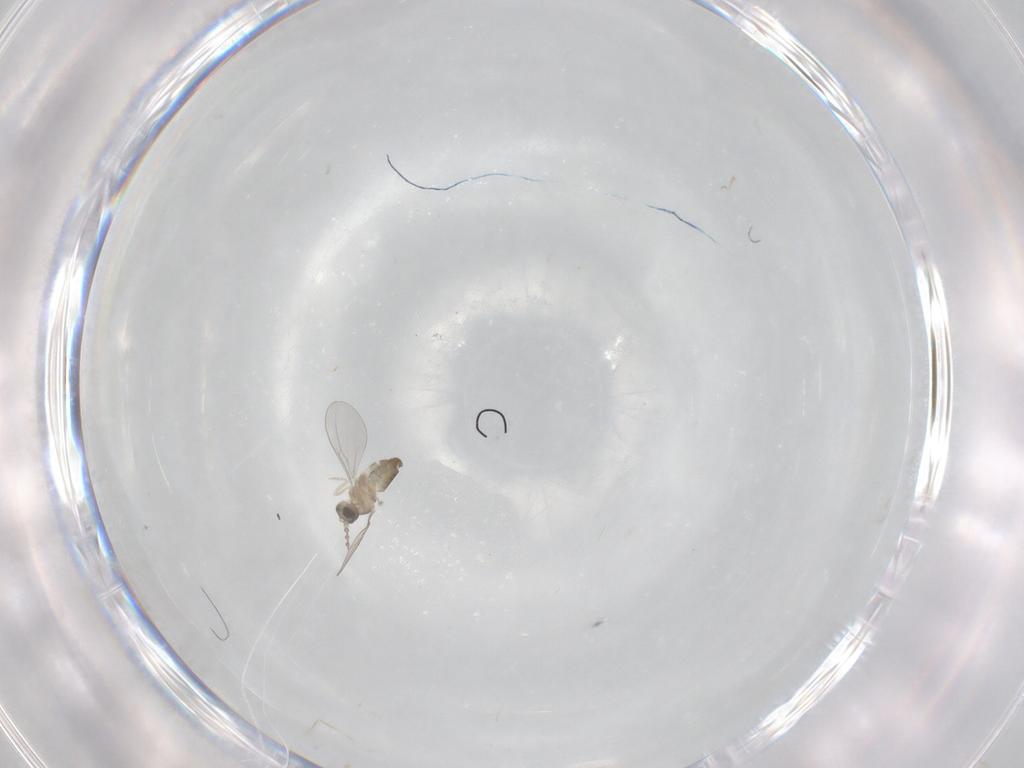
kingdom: Animalia
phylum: Arthropoda
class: Insecta
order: Diptera
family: Cecidomyiidae
